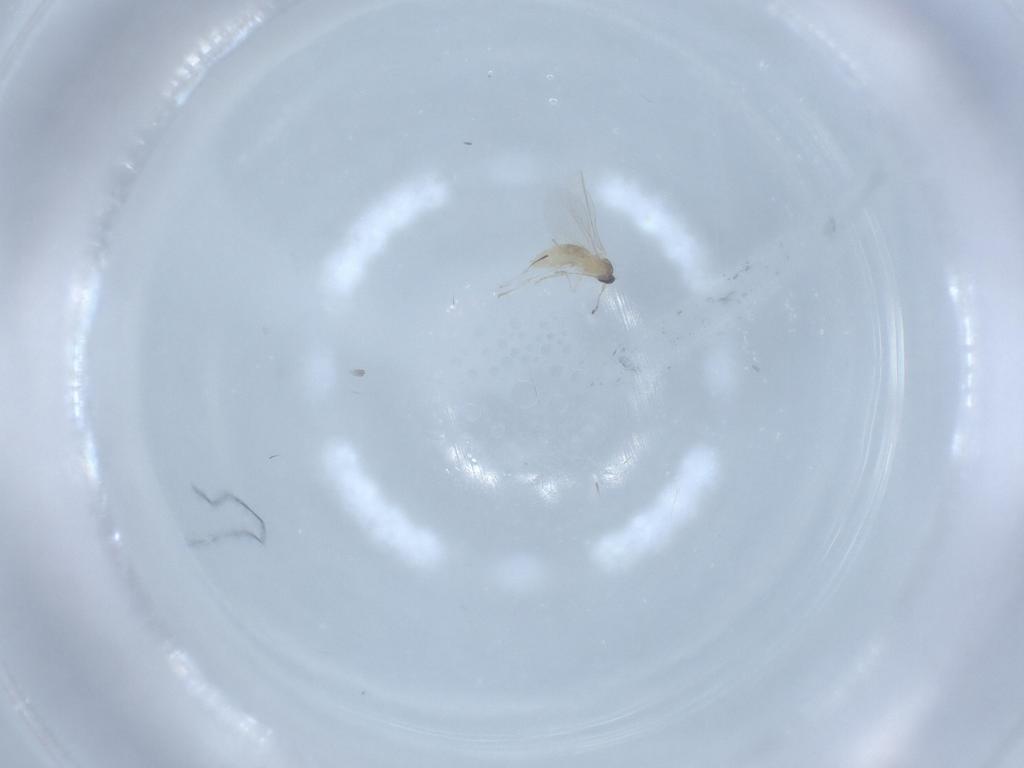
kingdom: Animalia
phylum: Arthropoda
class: Insecta
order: Diptera
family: Cecidomyiidae
